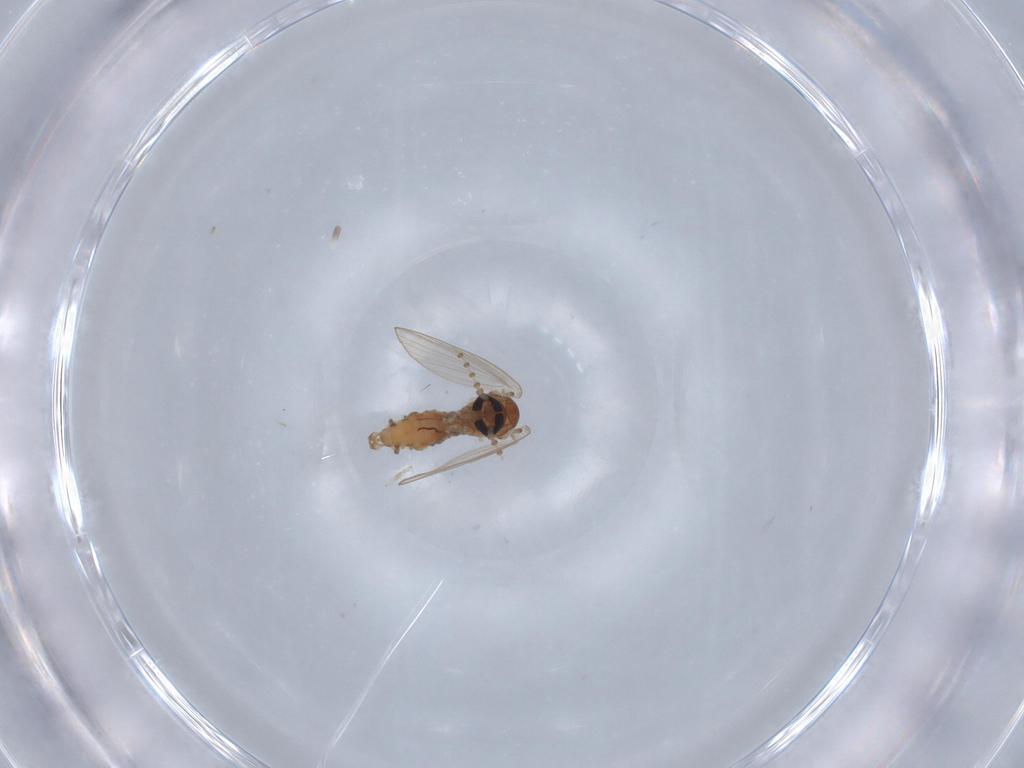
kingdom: Animalia
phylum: Arthropoda
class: Insecta
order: Diptera
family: Psychodidae
